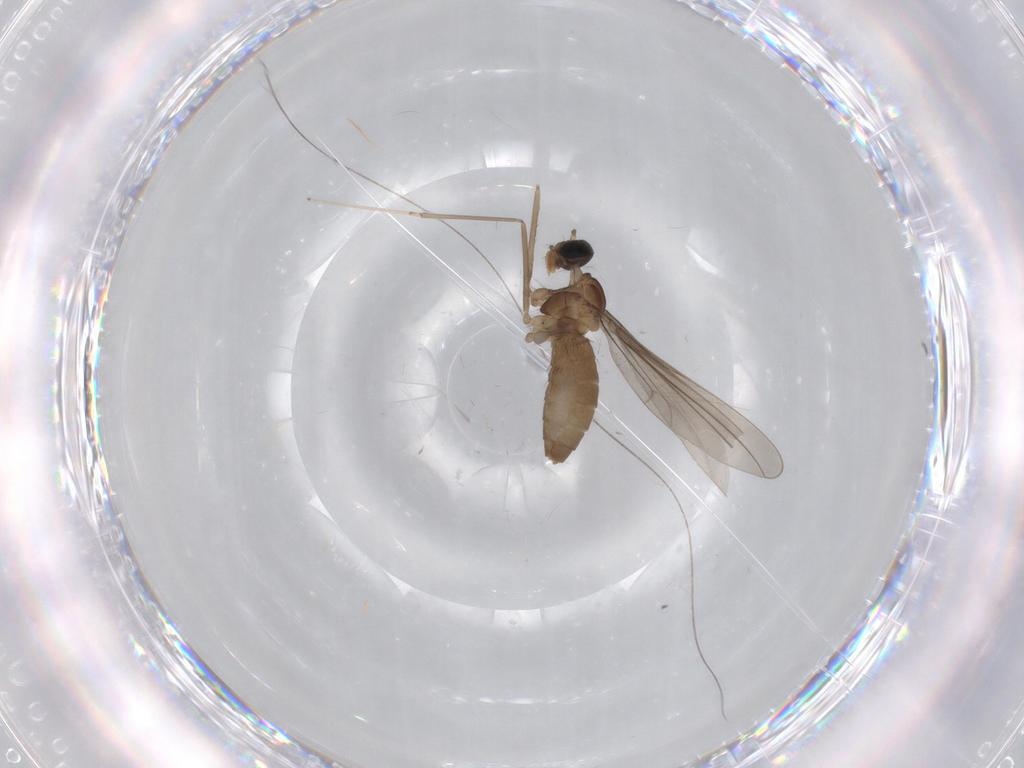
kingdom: Animalia
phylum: Arthropoda
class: Insecta
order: Diptera
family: Cecidomyiidae
